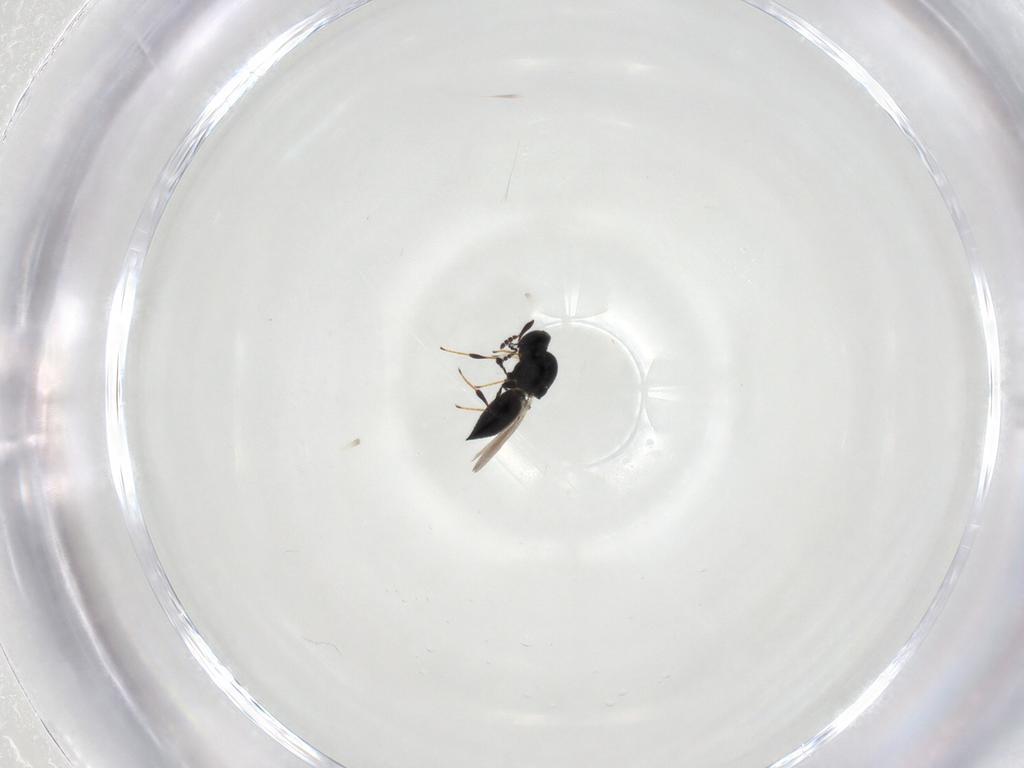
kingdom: Animalia
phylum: Arthropoda
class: Insecta
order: Hymenoptera
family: Platygastridae
